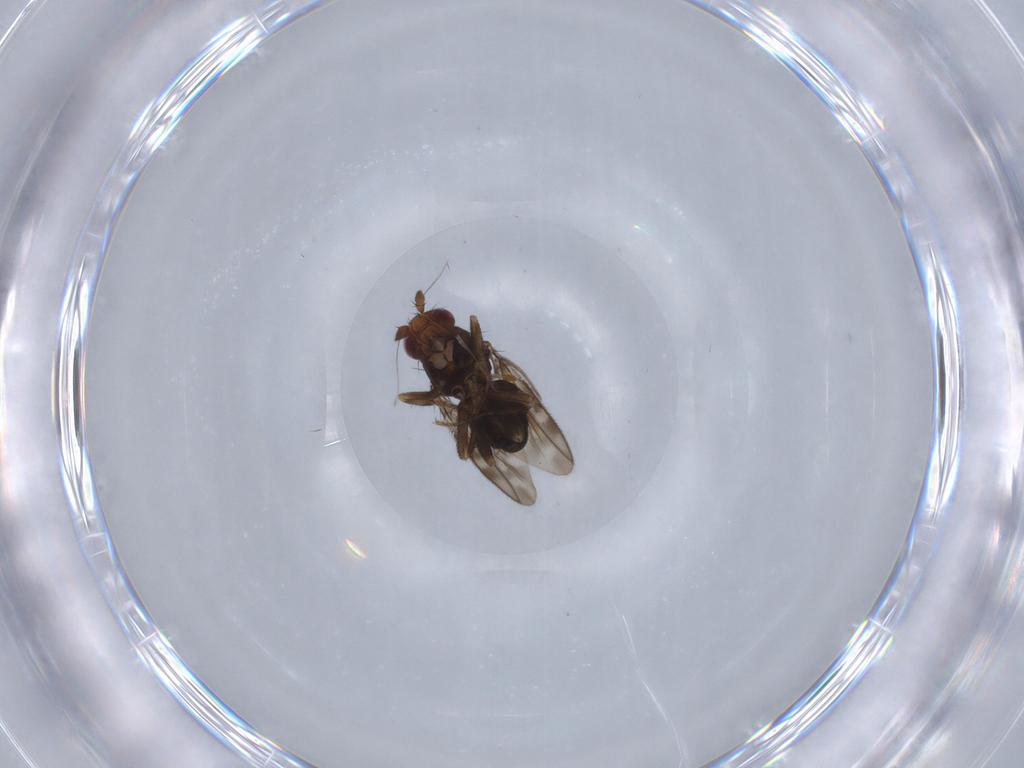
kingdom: Animalia
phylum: Arthropoda
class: Insecta
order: Diptera
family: Sphaeroceridae
